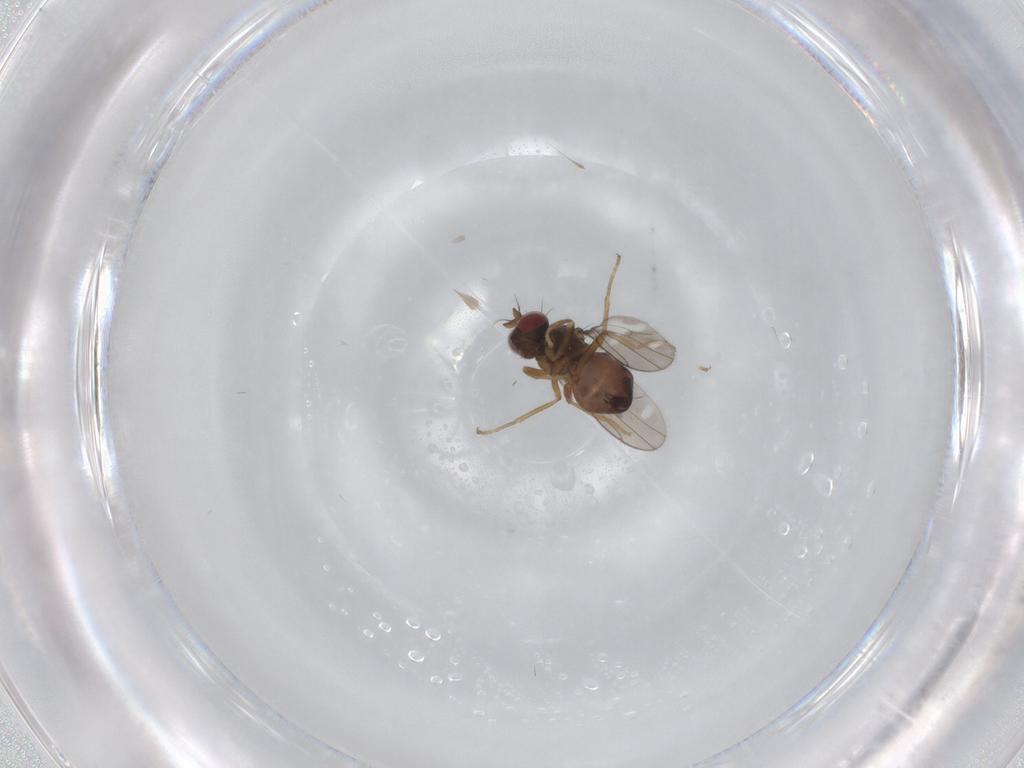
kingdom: Animalia
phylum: Arthropoda
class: Insecta
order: Diptera
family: Ephydridae
